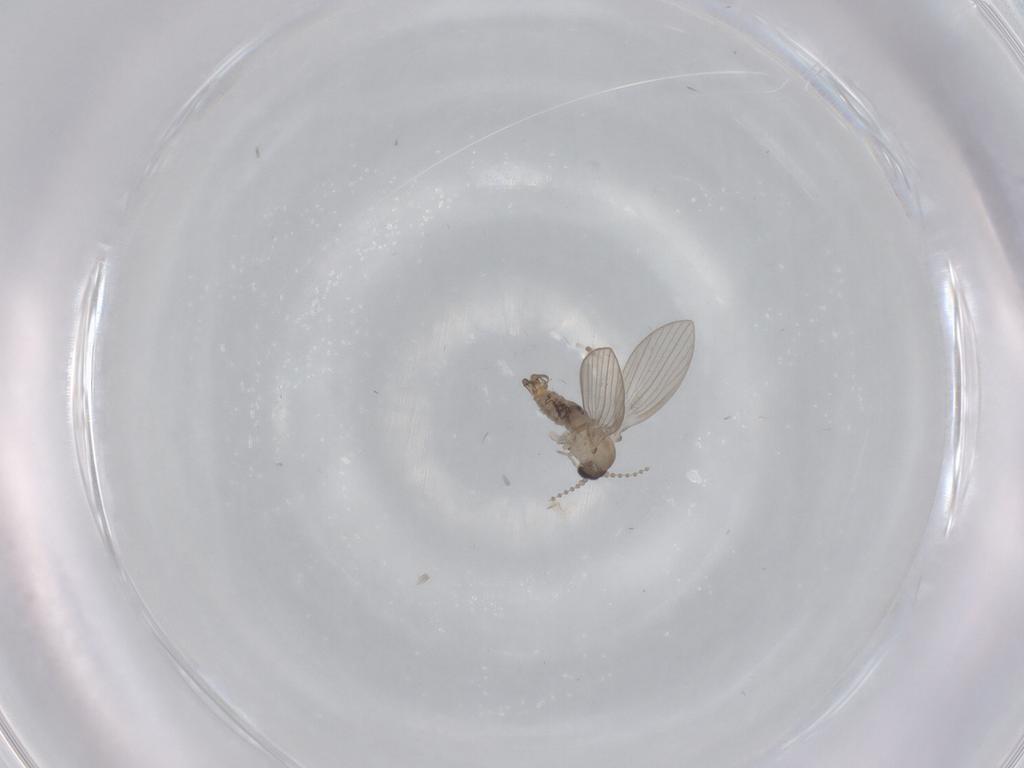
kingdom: Animalia
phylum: Arthropoda
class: Insecta
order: Diptera
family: Psychodidae
